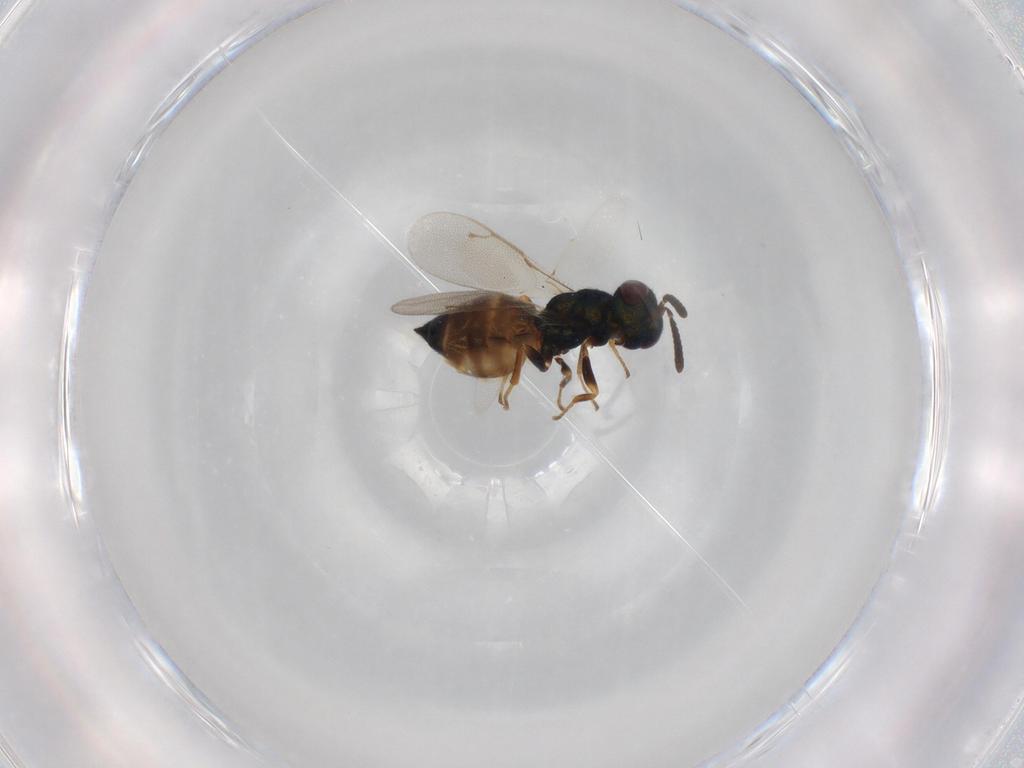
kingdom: Animalia
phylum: Arthropoda
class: Insecta
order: Hymenoptera
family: Pteromalidae
